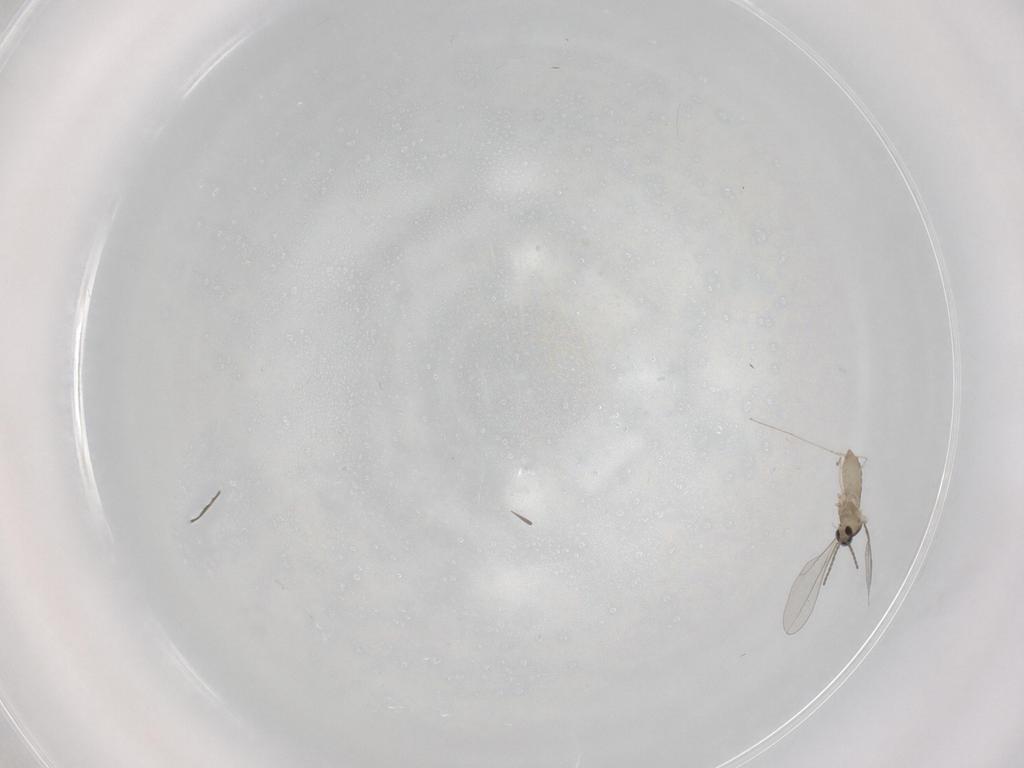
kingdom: Animalia
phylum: Arthropoda
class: Insecta
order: Diptera
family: Cecidomyiidae
